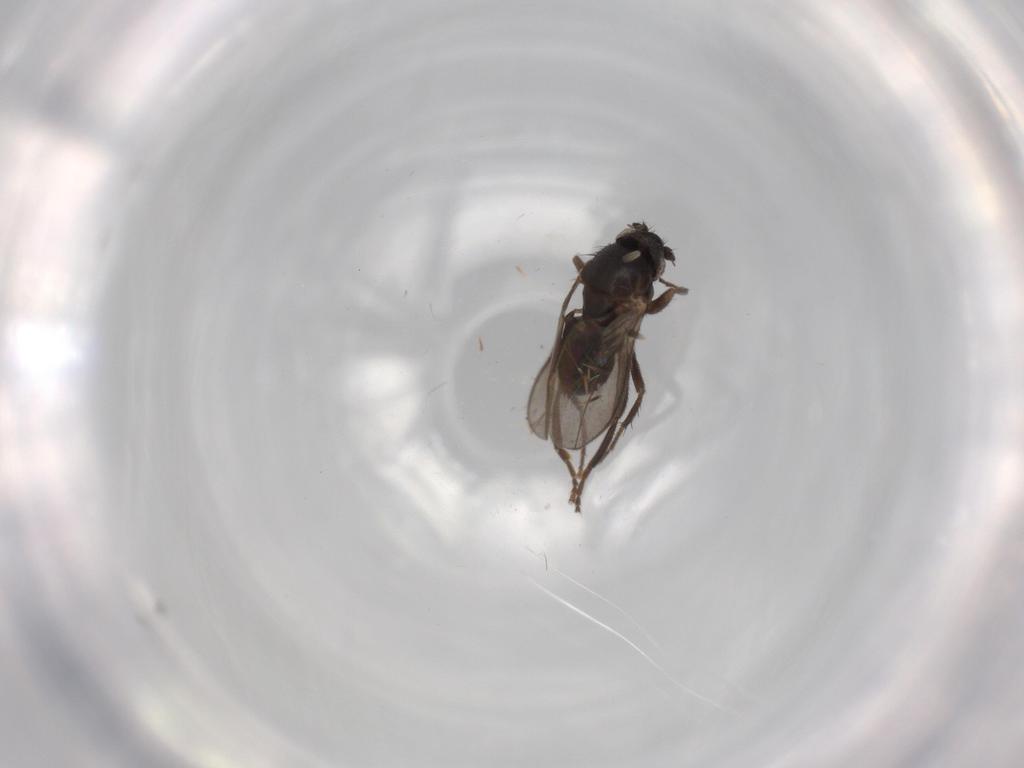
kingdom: Animalia
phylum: Arthropoda
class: Insecta
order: Diptera
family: Sphaeroceridae
